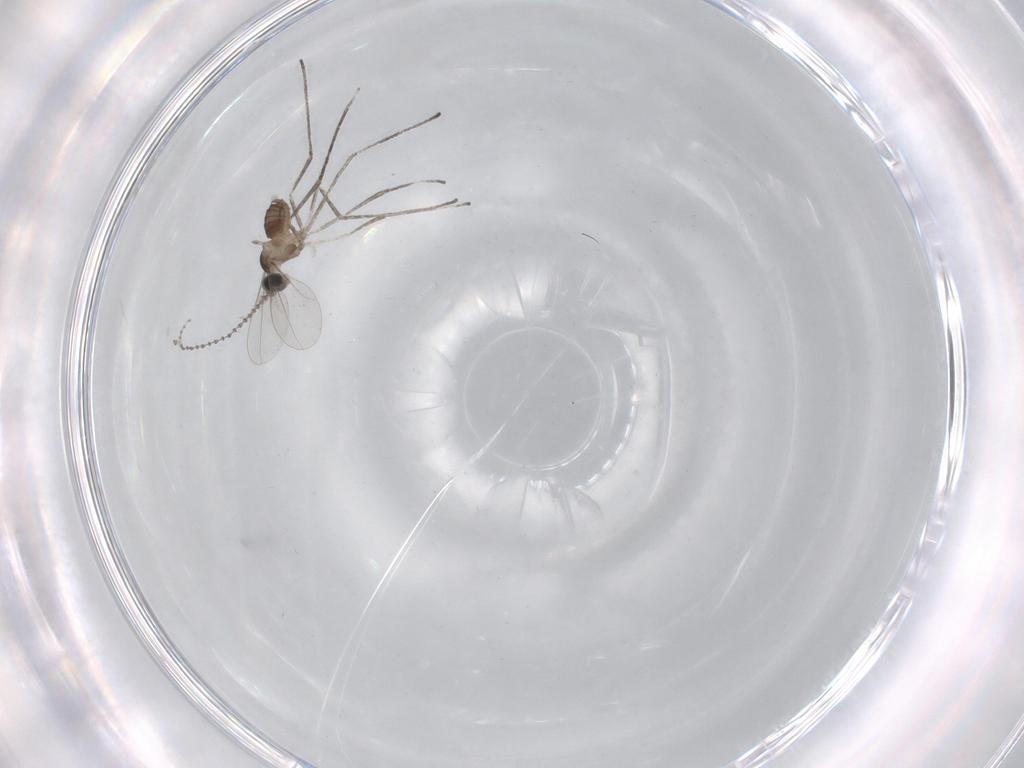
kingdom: Animalia
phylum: Arthropoda
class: Insecta
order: Diptera
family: Cecidomyiidae
